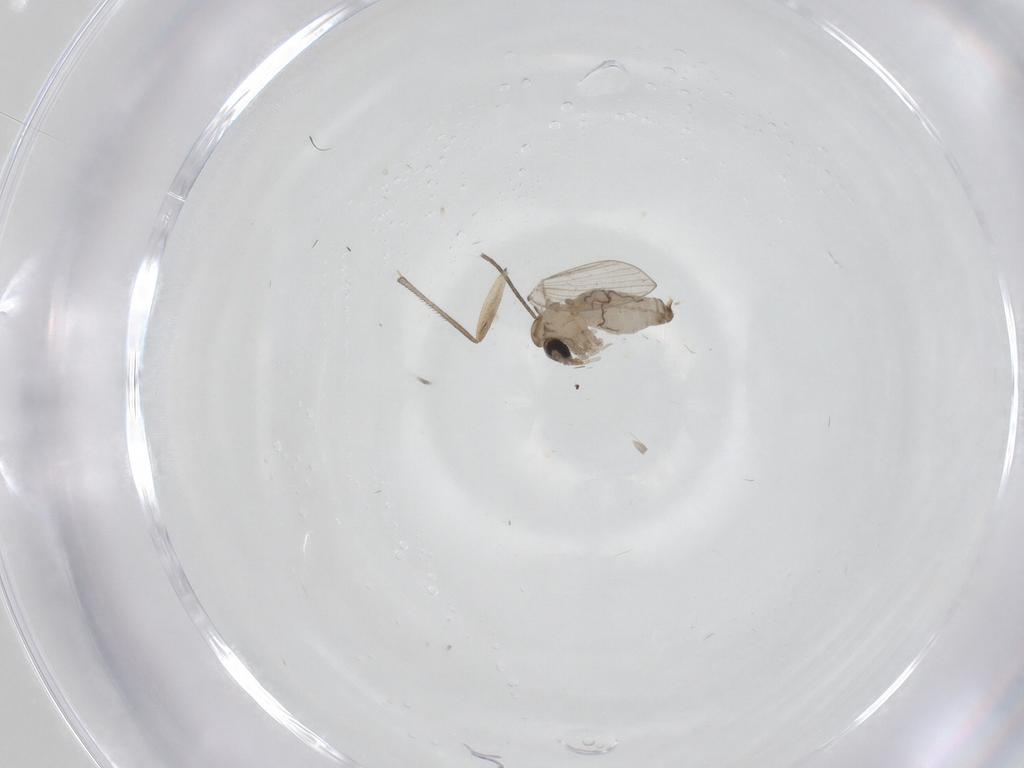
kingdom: Animalia
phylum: Arthropoda
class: Insecta
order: Diptera
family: Psychodidae
